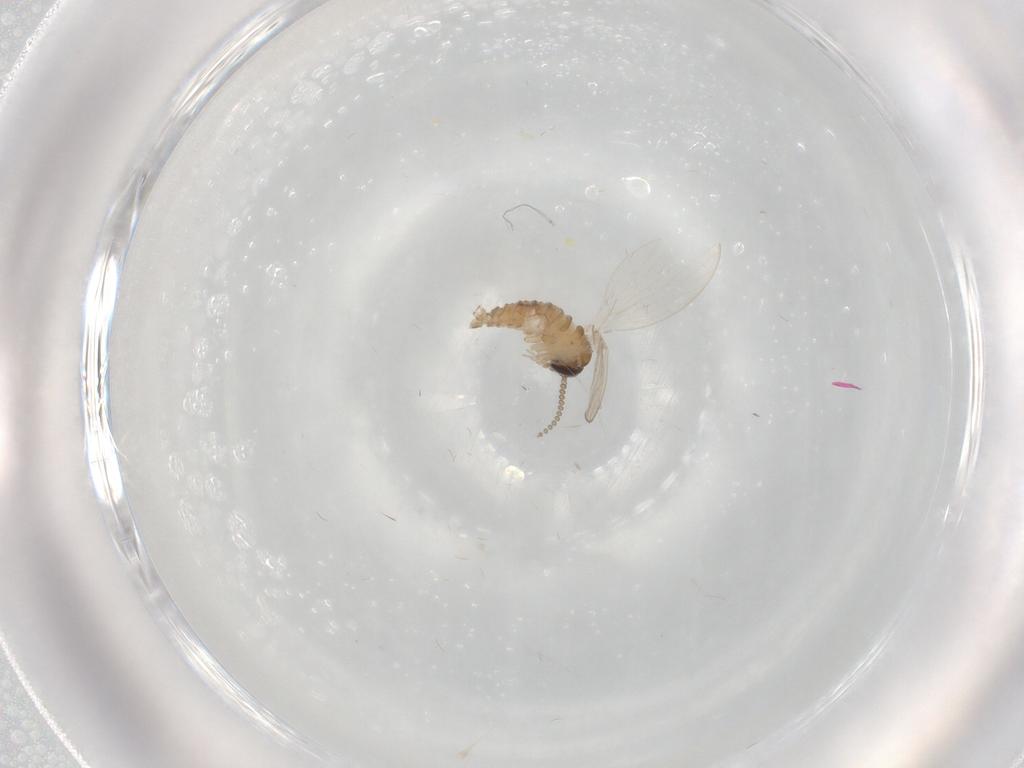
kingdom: Animalia
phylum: Arthropoda
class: Insecta
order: Diptera
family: Psychodidae
